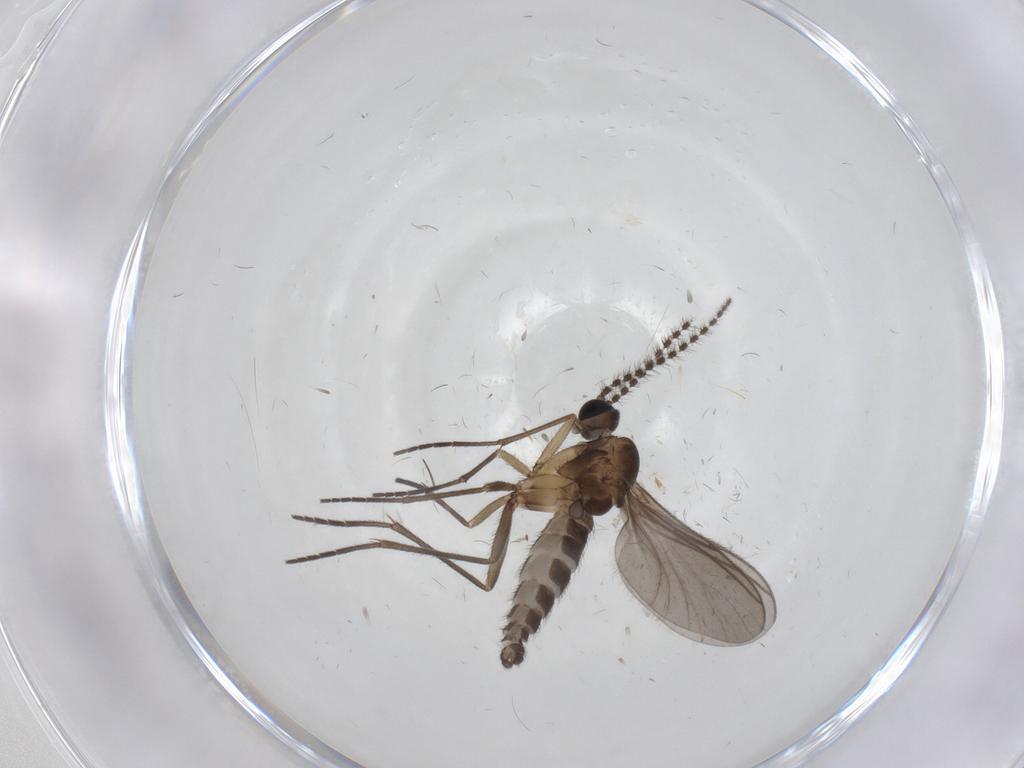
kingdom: Animalia
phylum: Arthropoda
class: Insecta
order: Diptera
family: Sciaridae
